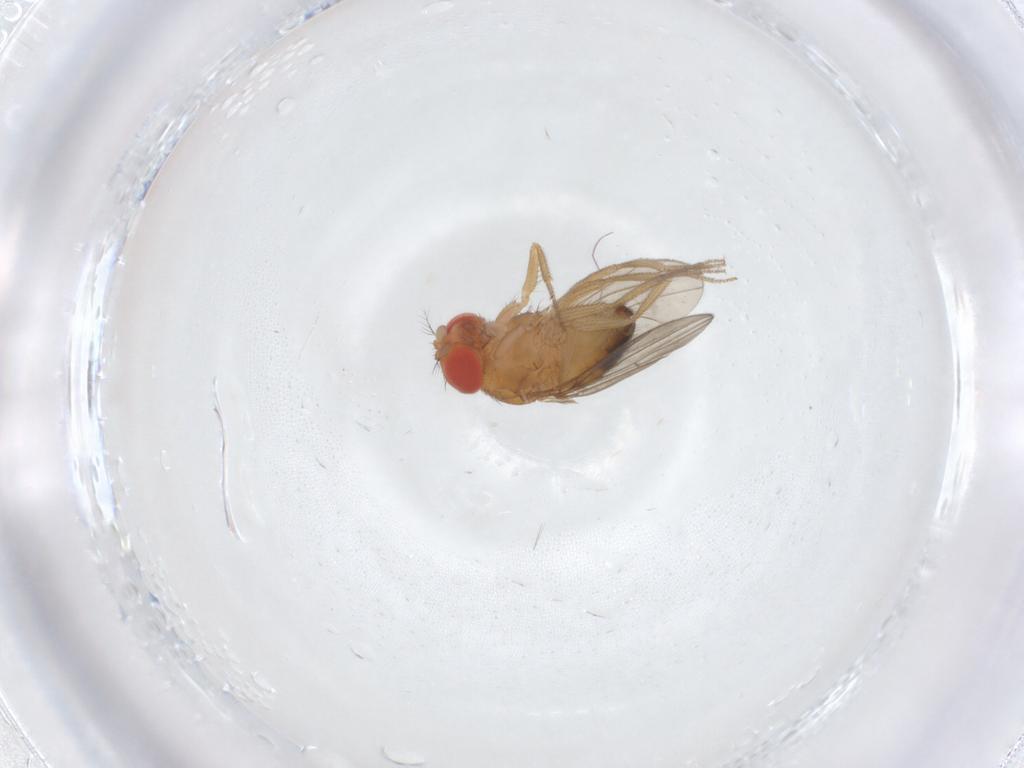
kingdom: Animalia
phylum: Arthropoda
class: Insecta
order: Diptera
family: Drosophilidae
